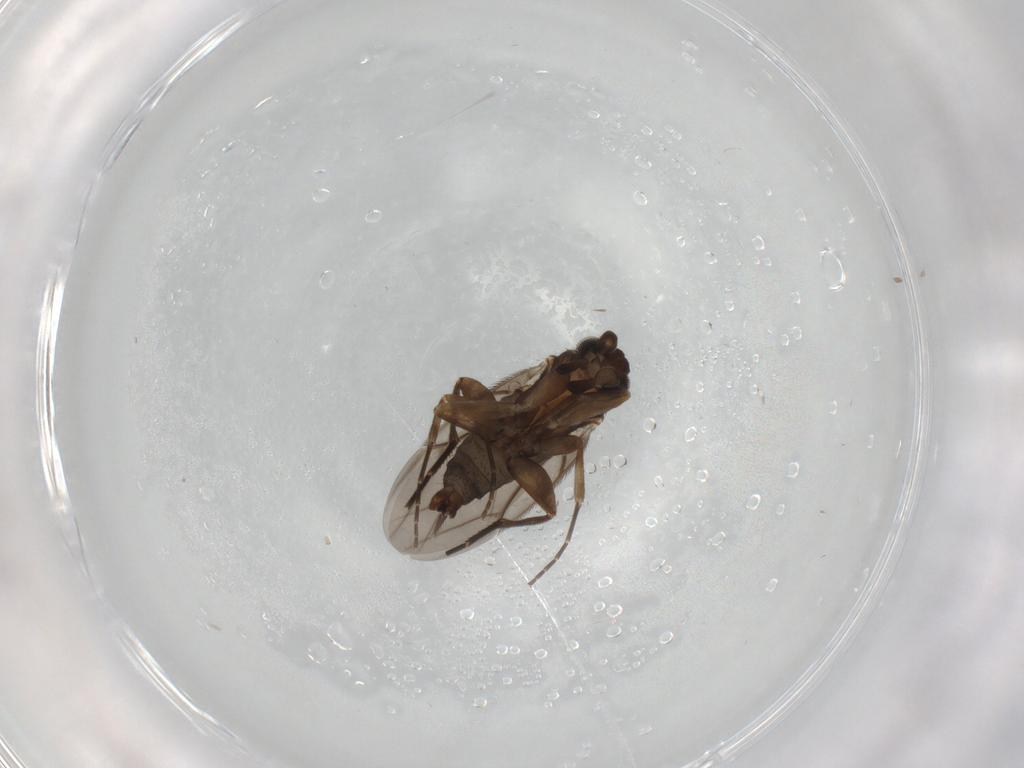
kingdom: Animalia
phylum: Arthropoda
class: Insecta
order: Diptera
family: Phoridae
